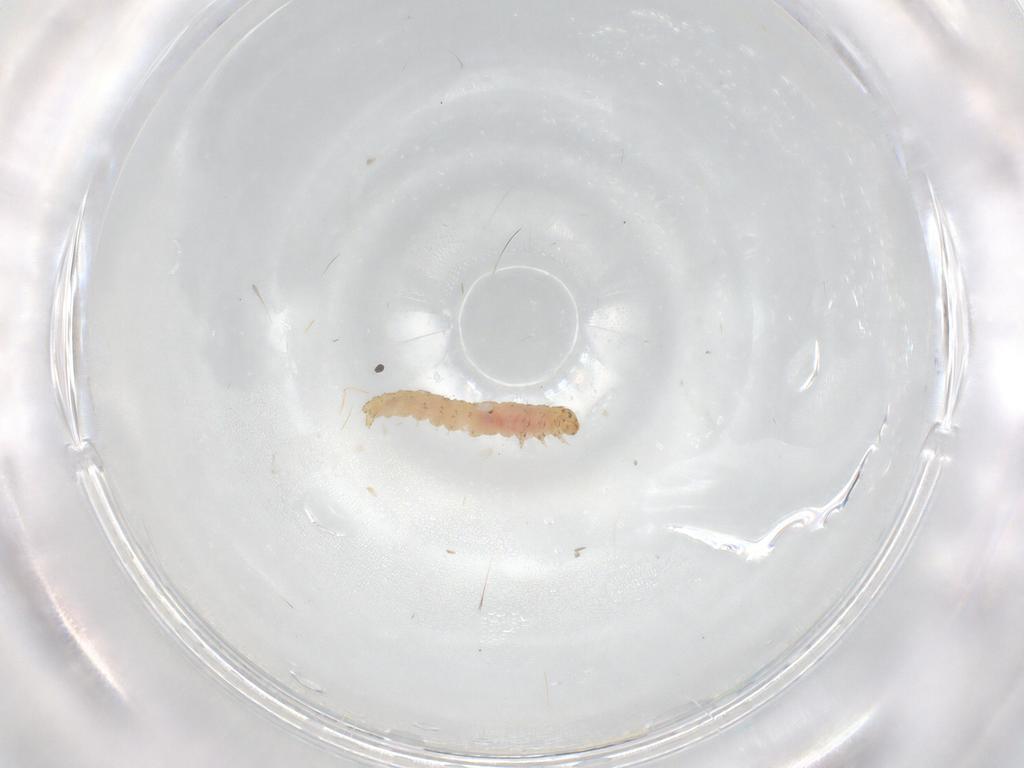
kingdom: Animalia
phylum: Arthropoda
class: Insecta
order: Lepidoptera
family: Gelechiidae
